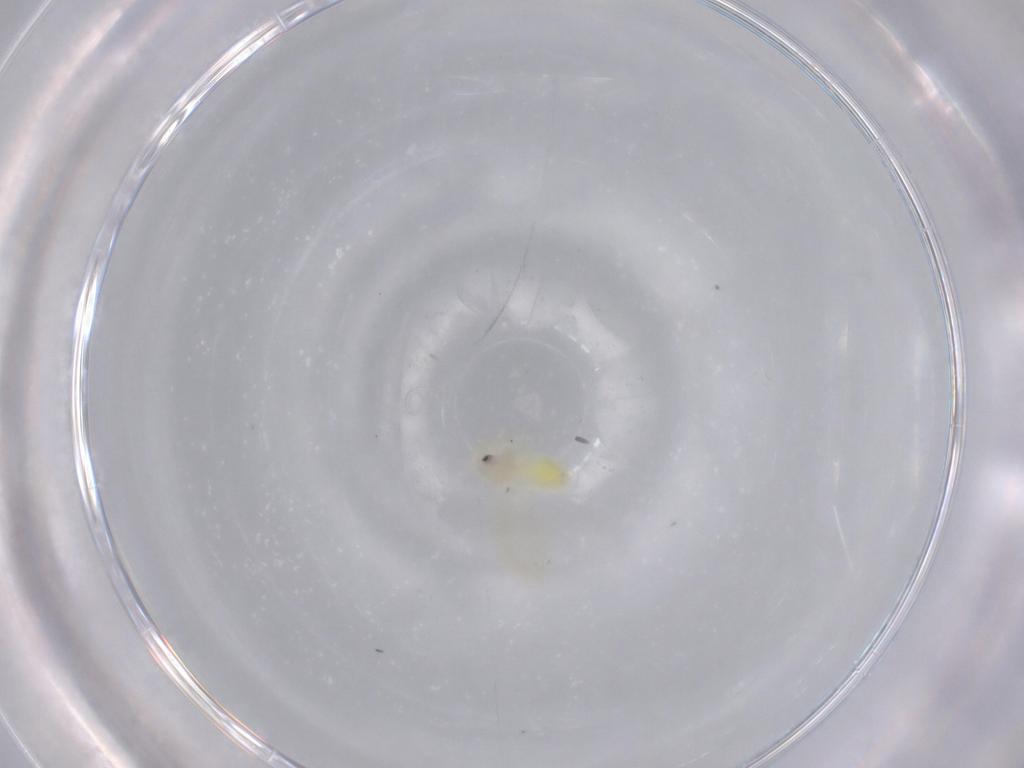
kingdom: Animalia
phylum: Arthropoda
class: Insecta
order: Hemiptera
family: Aleyrodidae
